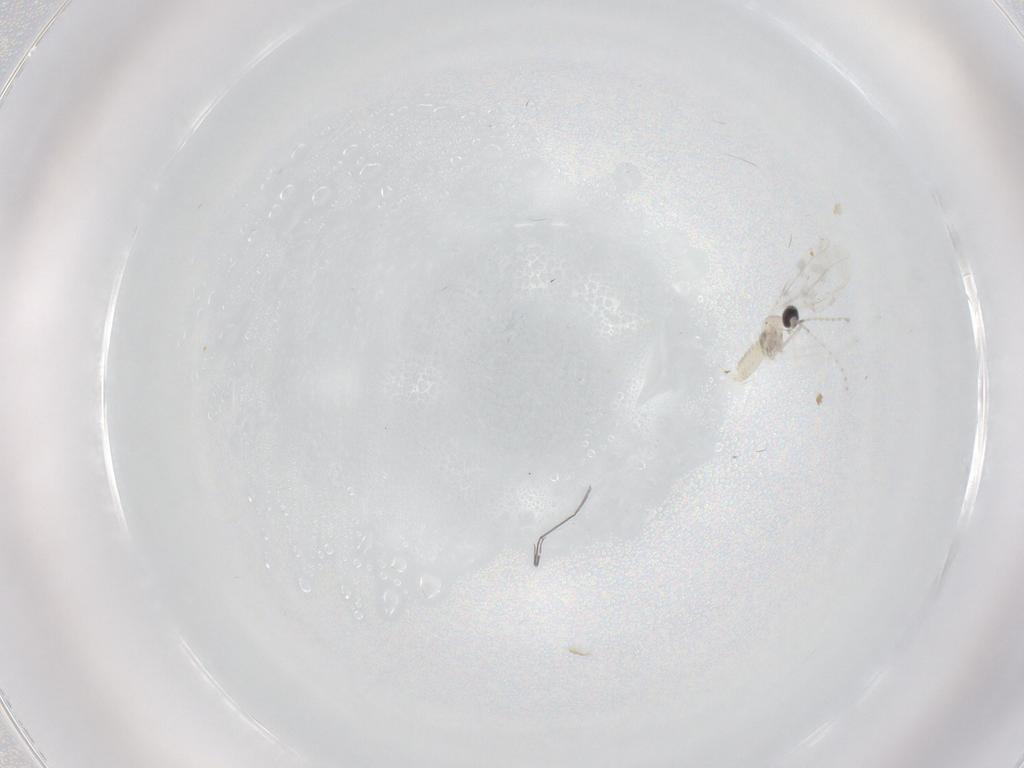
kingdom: Animalia
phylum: Arthropoda
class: Insecta
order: Diptera
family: Cecidomyiidae
